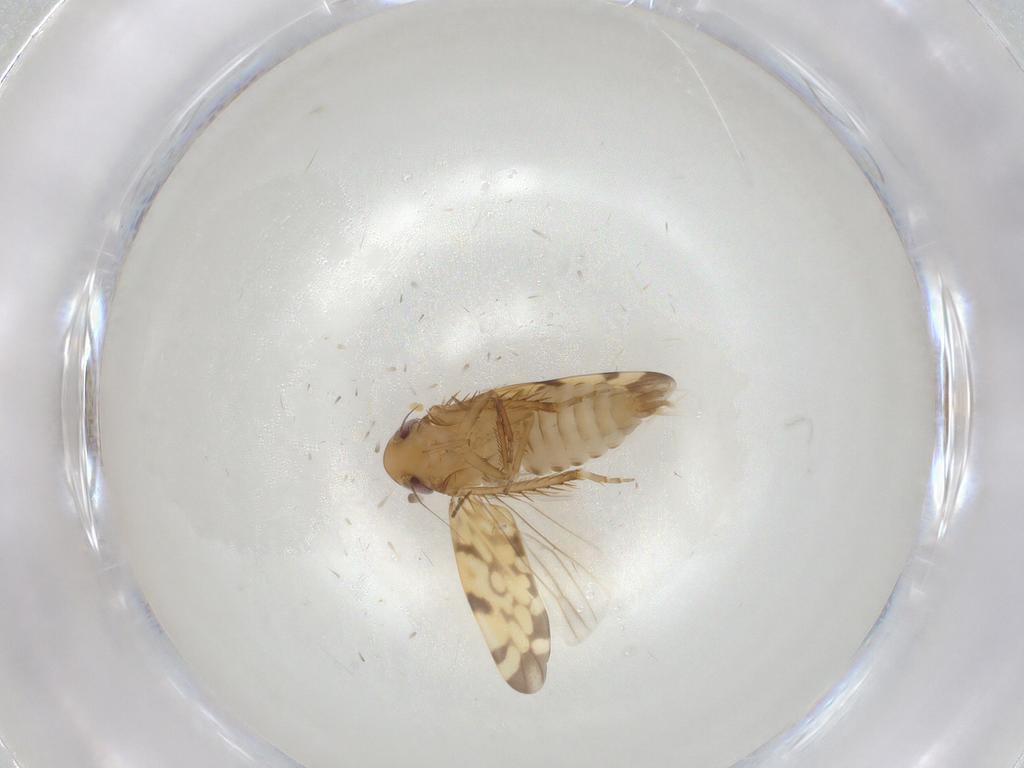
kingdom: Animalia
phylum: Arthropoda
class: Insecta
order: Hemiptera
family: Cicadellidae
